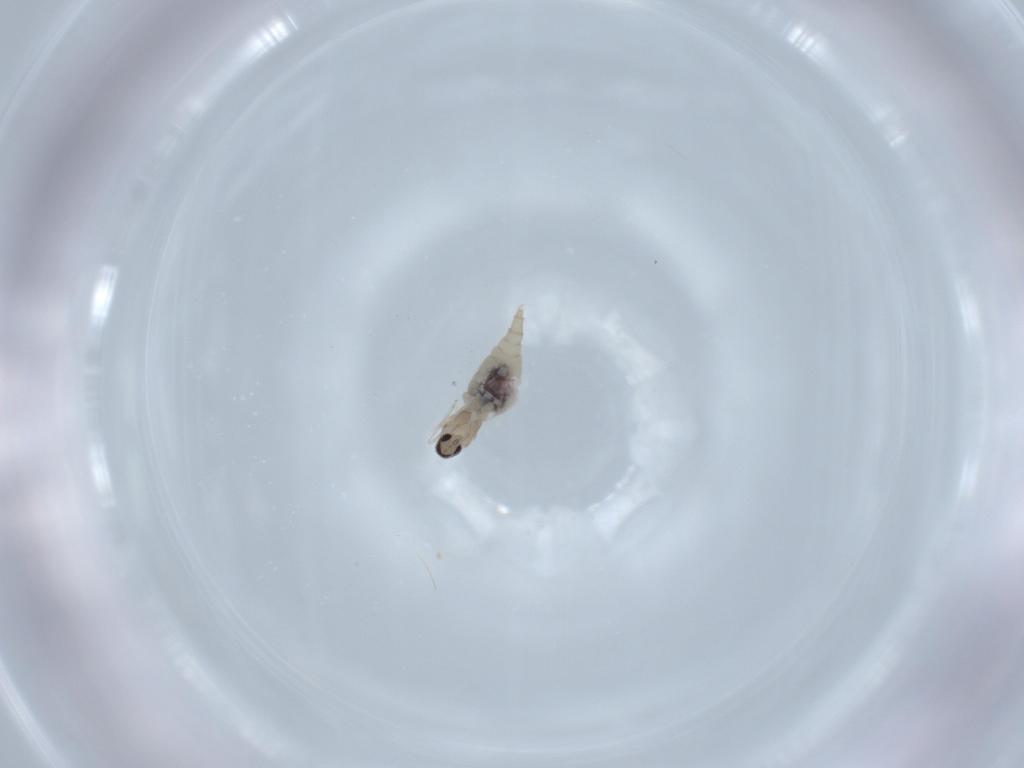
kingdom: Animalia
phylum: Arthropoda
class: Insecta
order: Diptera
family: Cecidomyiidae
